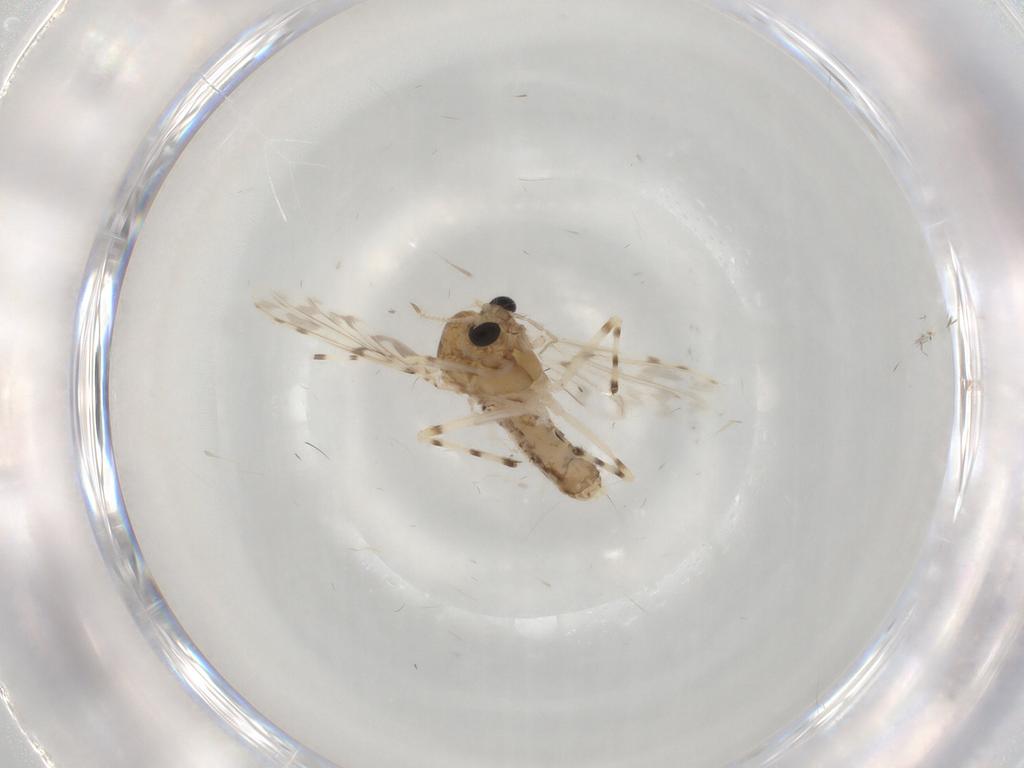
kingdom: Animalia
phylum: Arthropoda
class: Insecta
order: Diptera
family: Chironomidae
